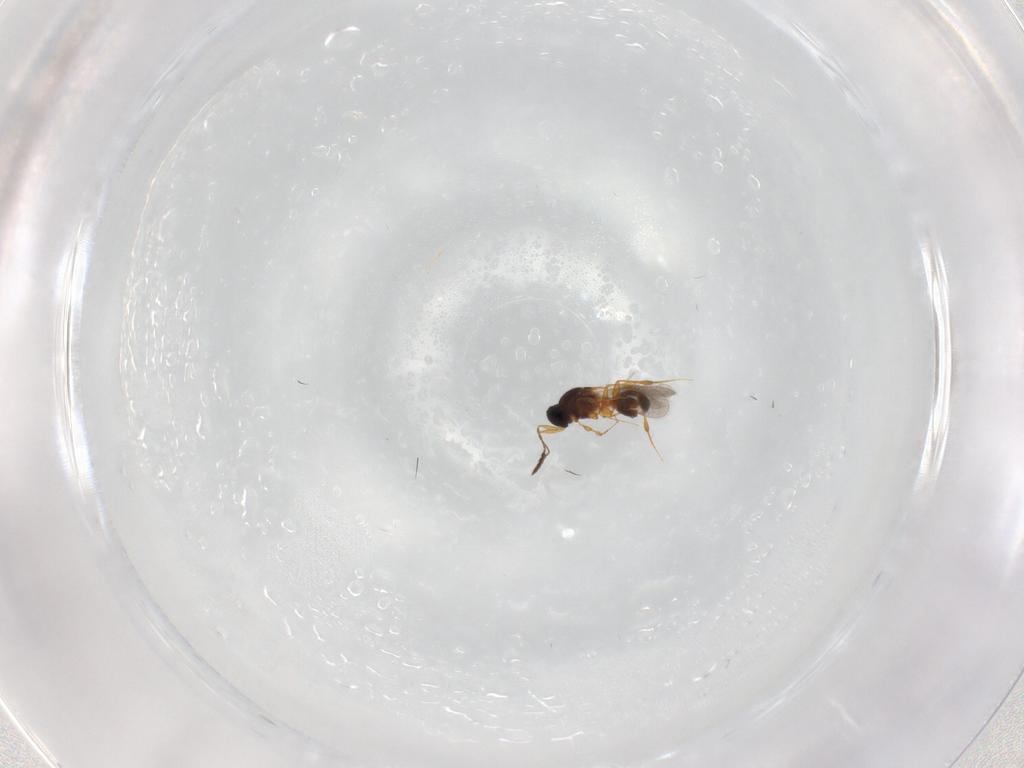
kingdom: Animalia
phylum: Arthropoda
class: Insecta
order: Hymenoptera
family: Platygastridae
